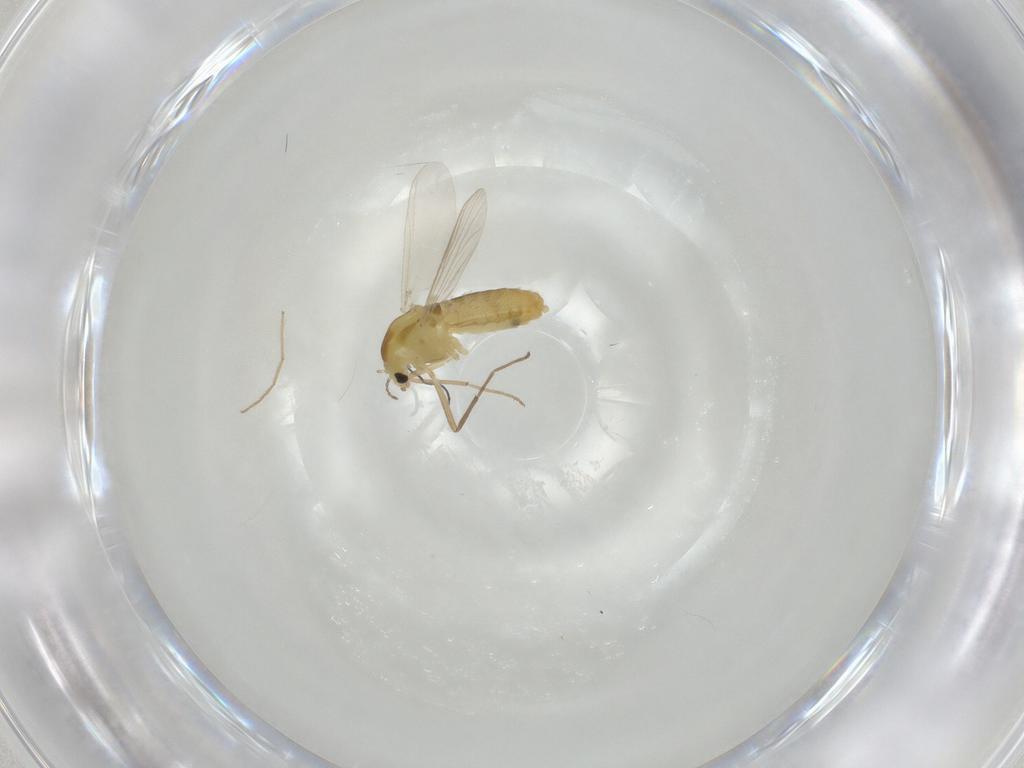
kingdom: Animalia
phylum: Arthropoda
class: Insecta
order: Diptera
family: Chironomidae
